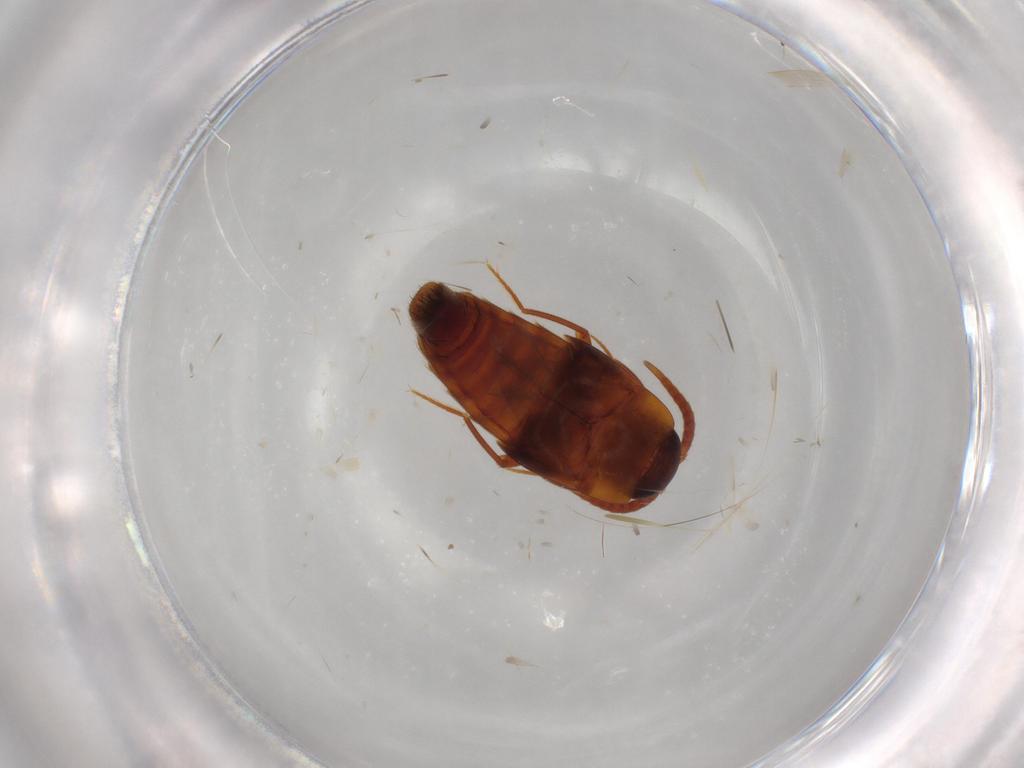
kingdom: Animalia
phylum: Arthropoda
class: Insecta
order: Coleoptera
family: Staphylinidae
